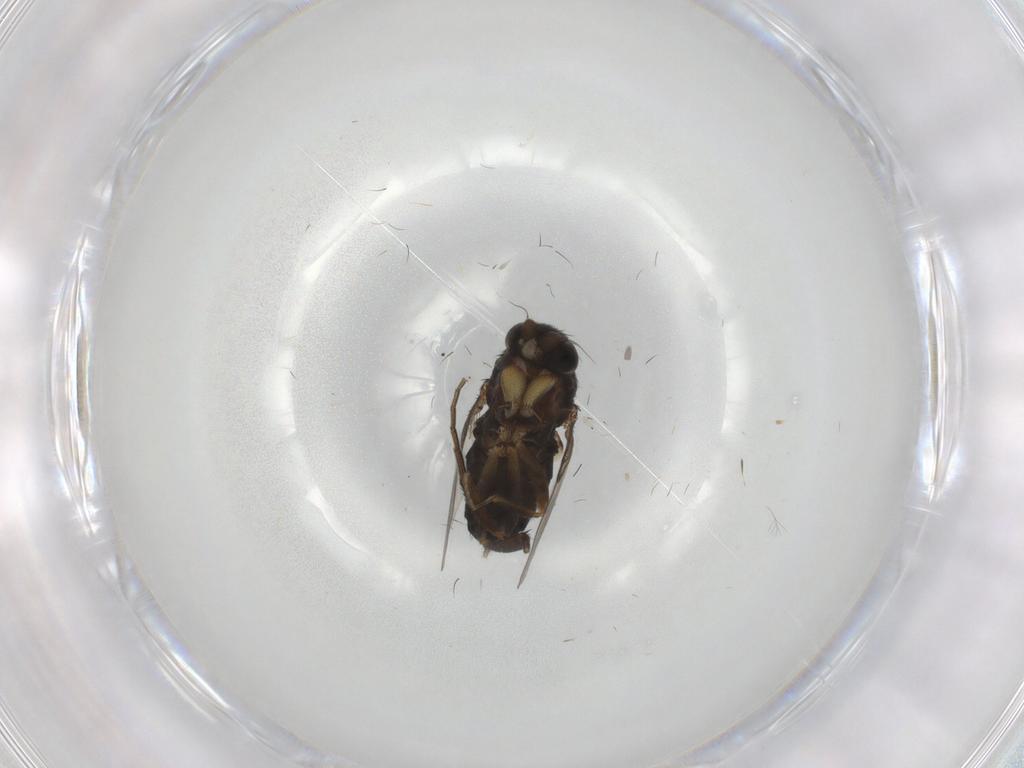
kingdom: Animalia
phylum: Arthropoda
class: Insecta
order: Diptera
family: Phoridae
